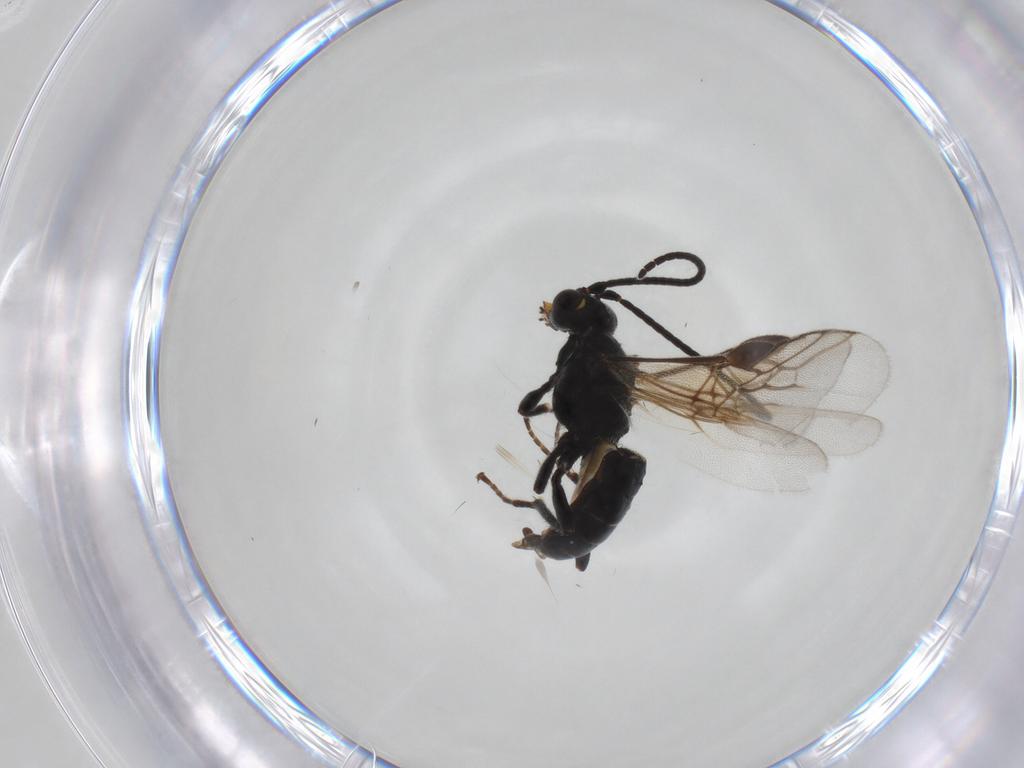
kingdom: Animalia
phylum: Arthropoda
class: Insecta
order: Hymenoptera
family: Braconidae
